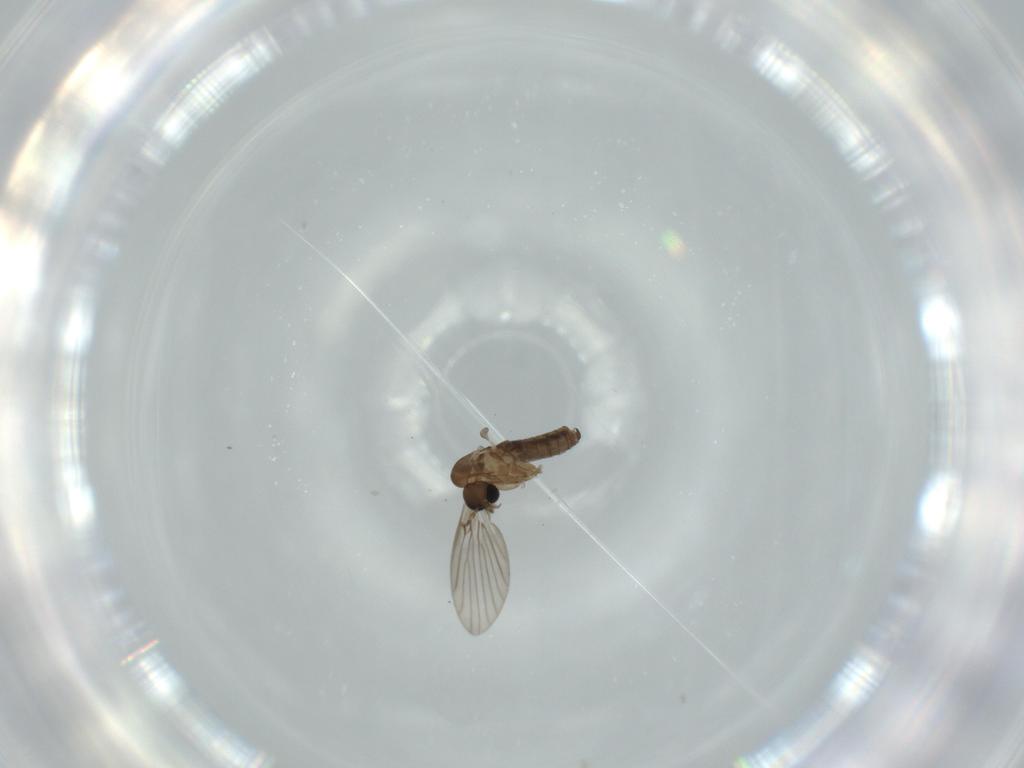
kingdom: Animalia
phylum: Arthropoda
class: Insecta
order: Diptera
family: Psychodidae
